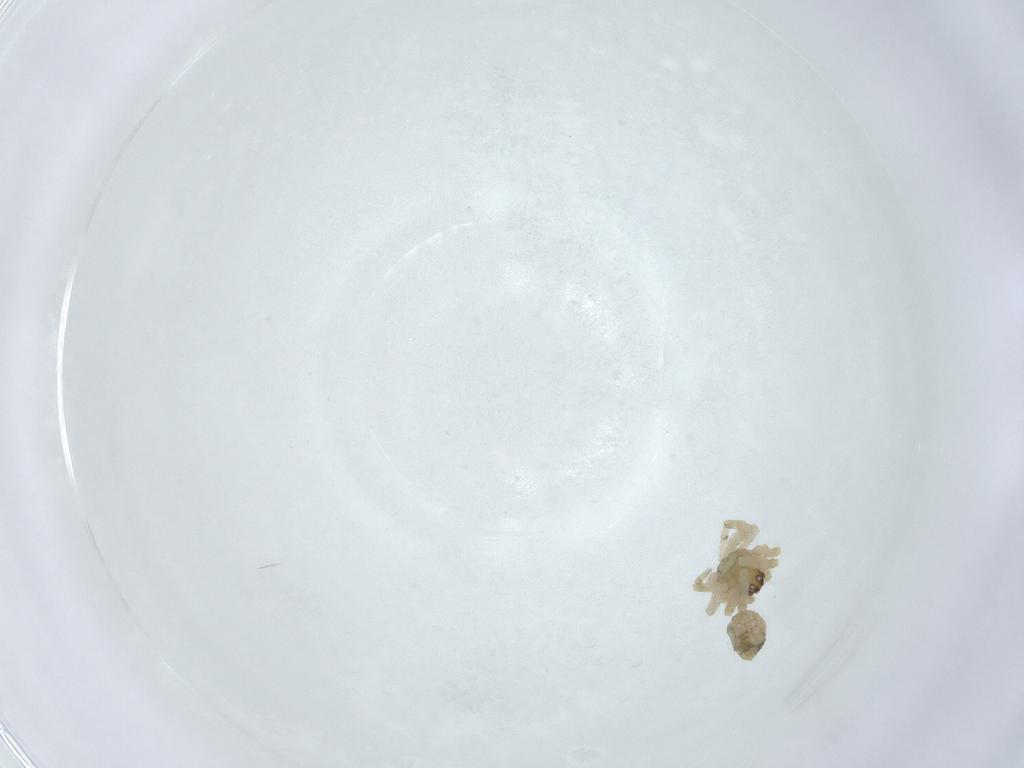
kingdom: Animalia
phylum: Arthropoda
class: Arachnida
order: Araneae
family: Theridiidae
